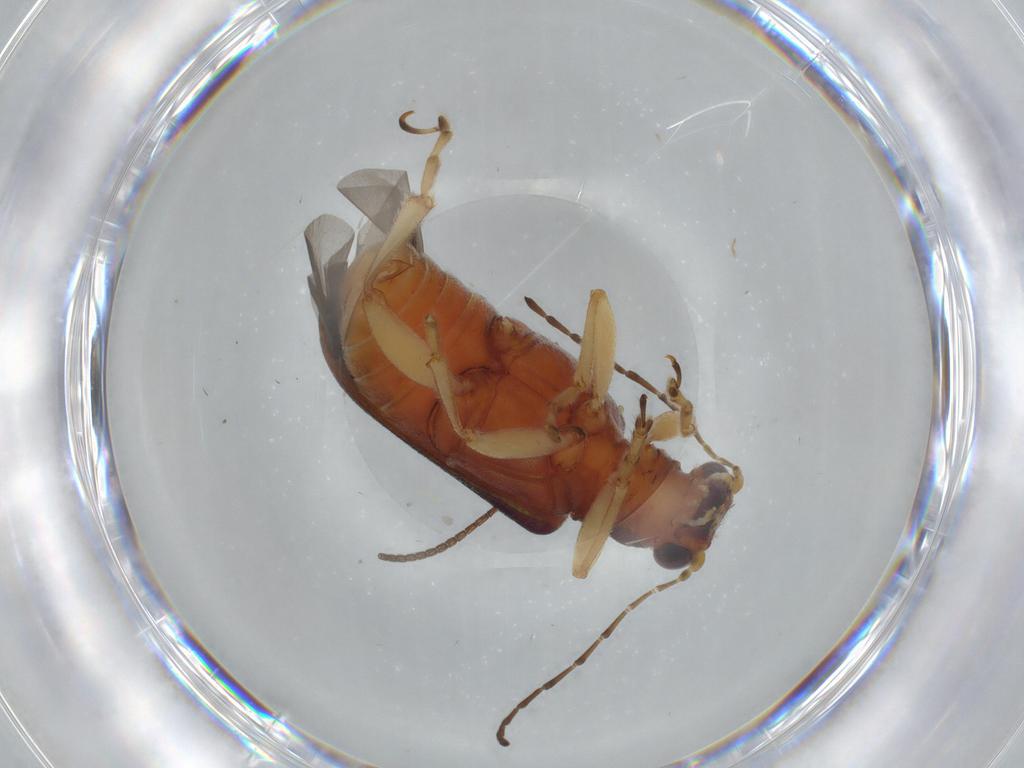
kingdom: Animalia
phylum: Arthropoda
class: Insecta
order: Coleoptera
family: Chrysomelidae
